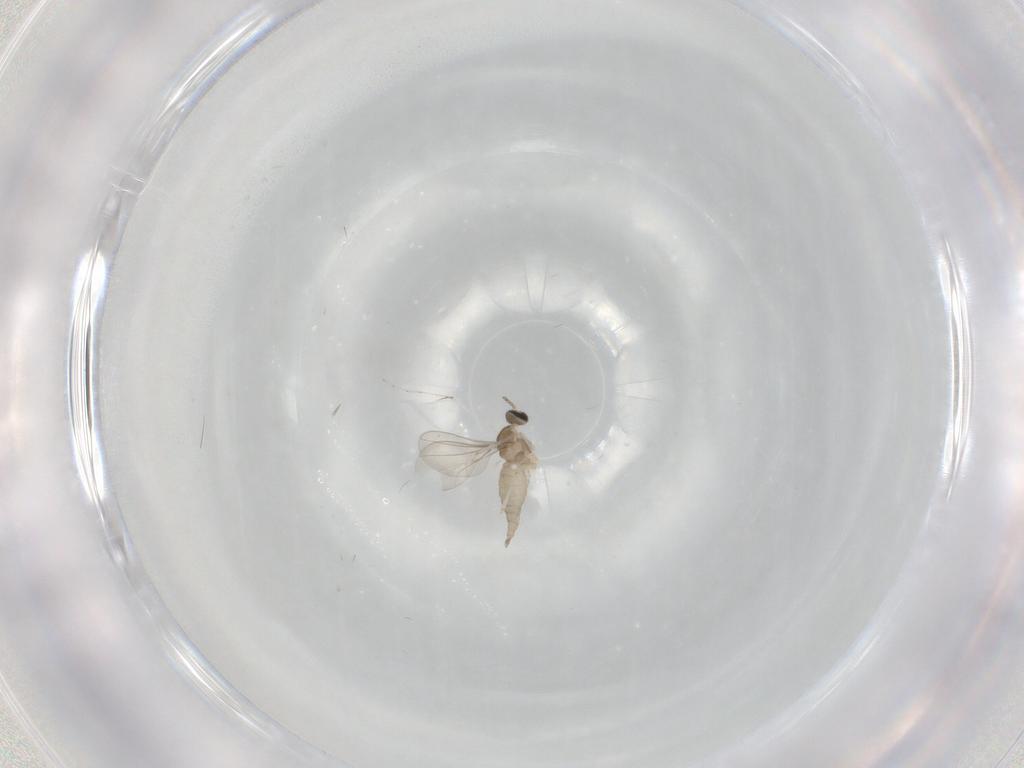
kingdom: Animalia
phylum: Arthropoda
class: Insecta
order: Diptera
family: Cecidomyiidae
